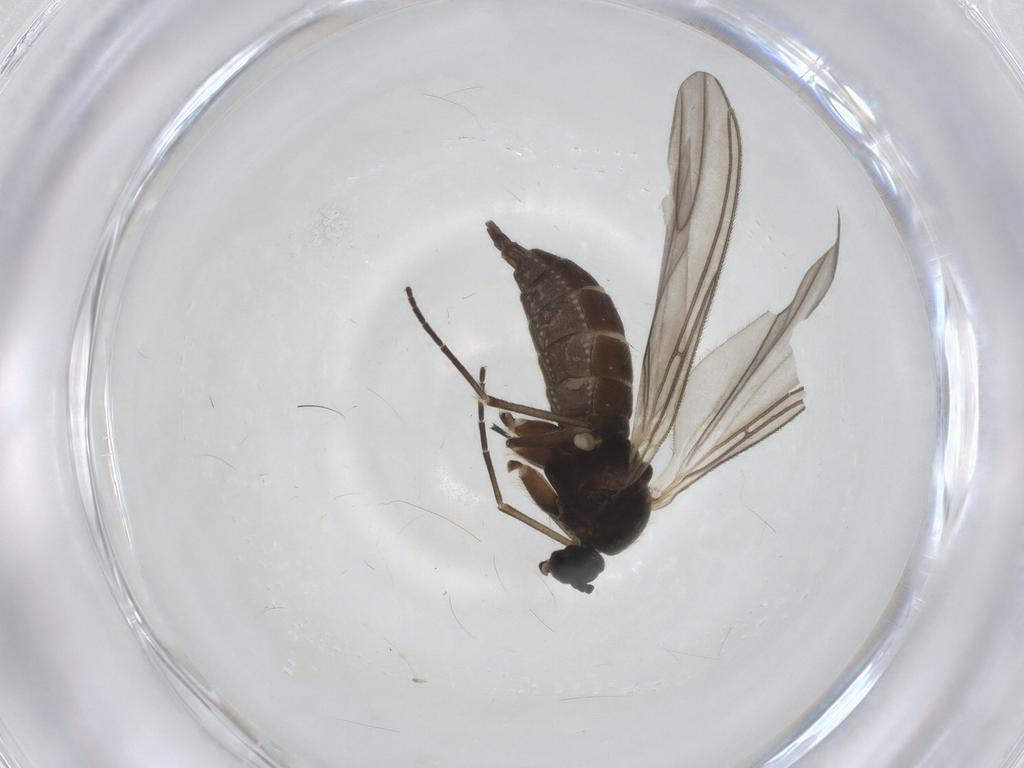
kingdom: Animalia
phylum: Arthropoda
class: Insecta
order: Diptera
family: Sciaridae
